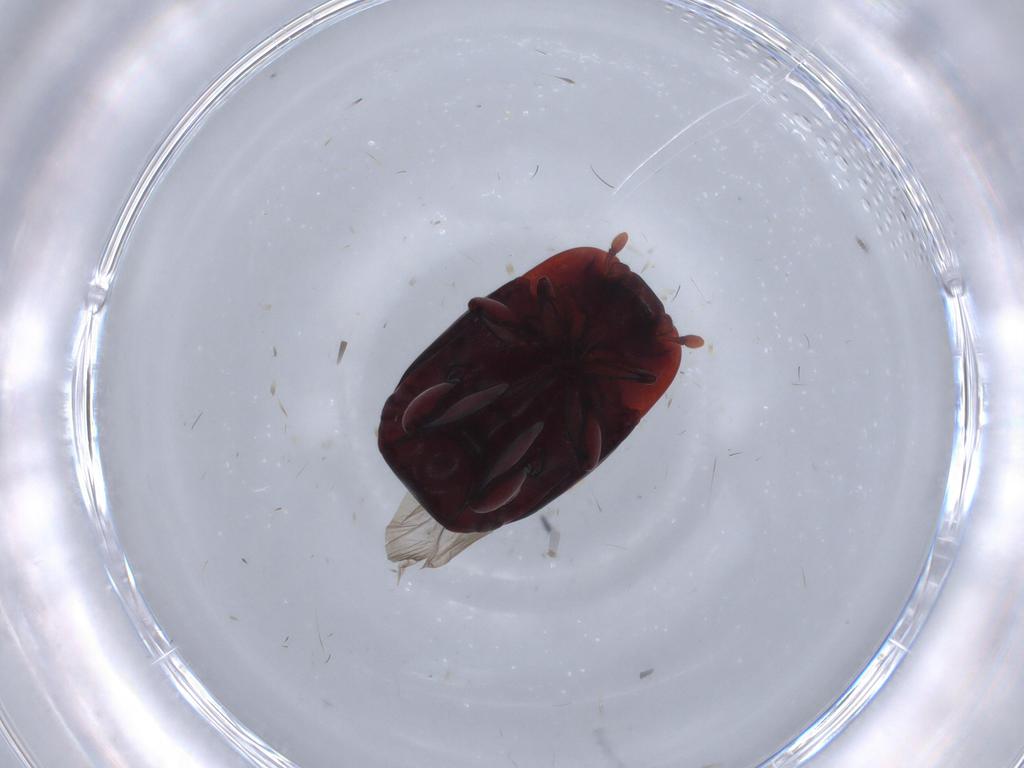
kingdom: Animalia
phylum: Arthropoda
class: Insecta
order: Coleoptera
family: Histeridae
